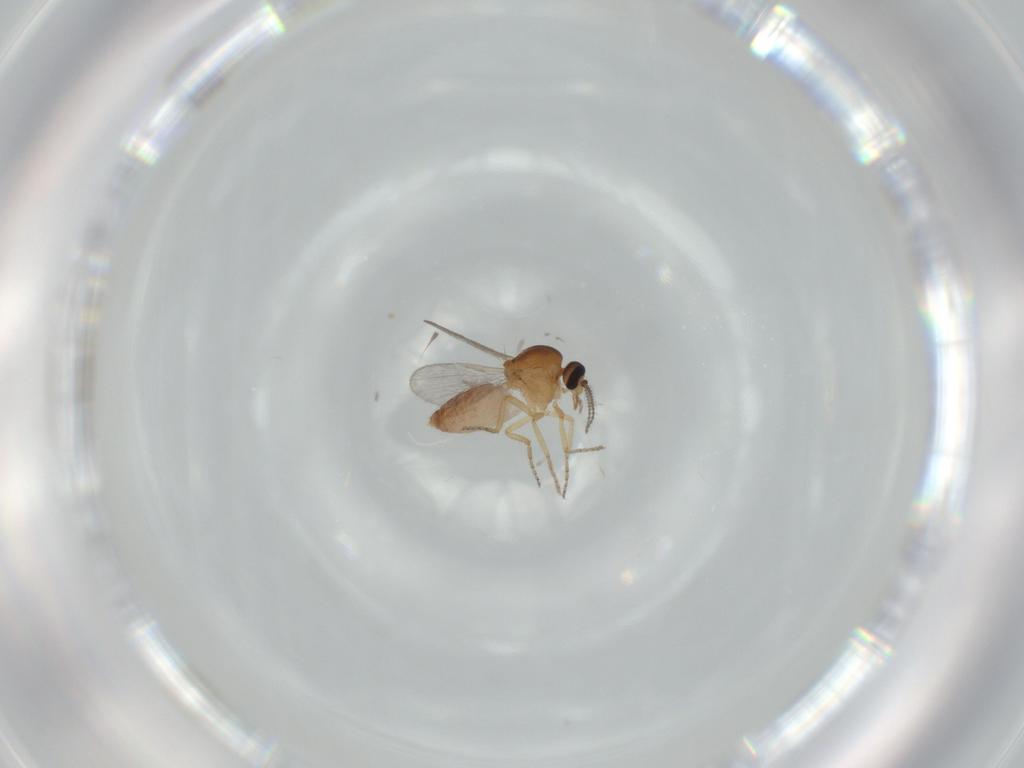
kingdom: Animalia
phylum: Arthropoda
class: Insecta
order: Diptera
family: Ceratopogonidae
